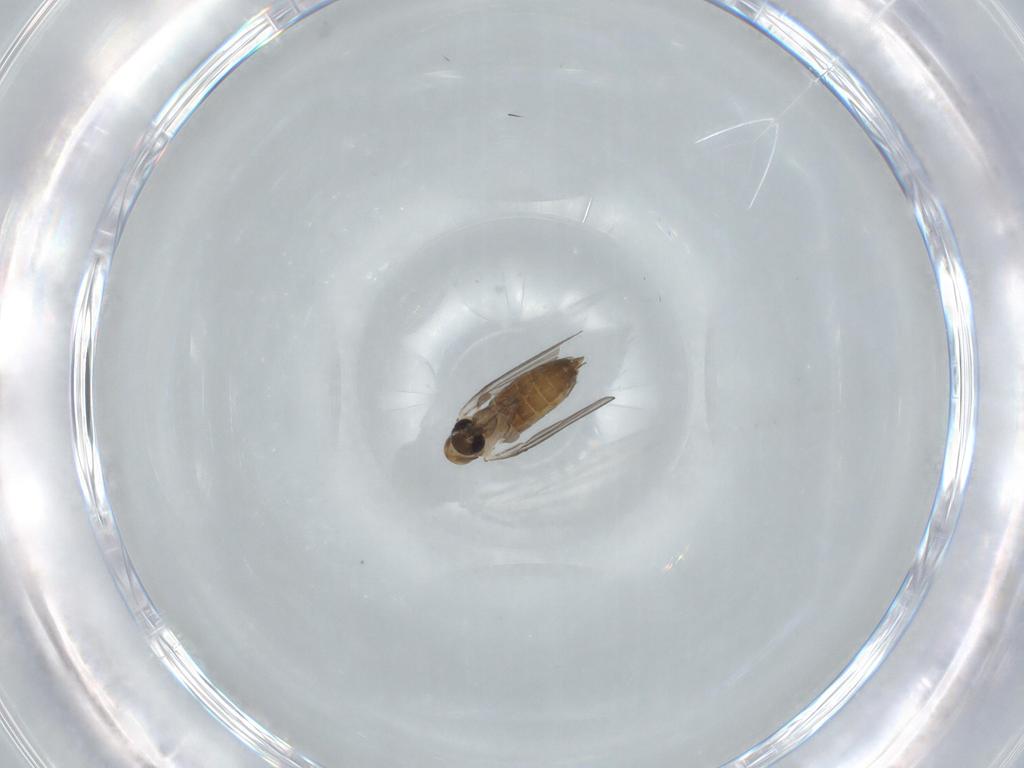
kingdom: Animalia
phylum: Arthropoda
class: Insecta
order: Diptera
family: Psychodidae
